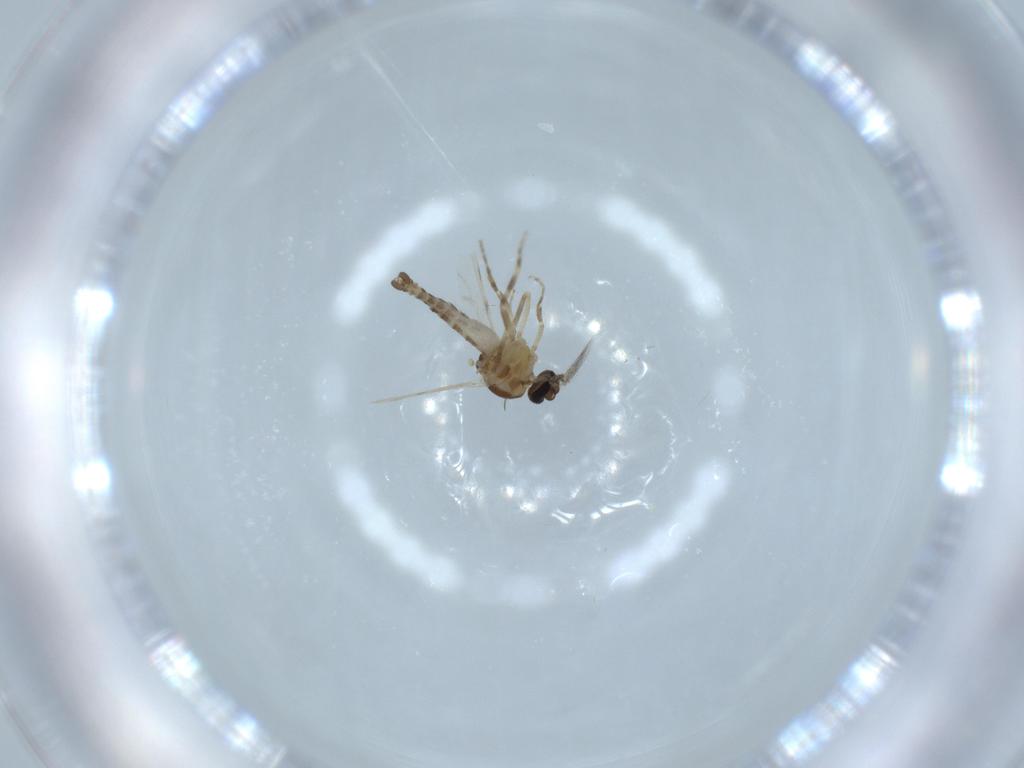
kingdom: Animalia
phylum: Arthropoda
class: Insecta
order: Diptera
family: Ceratopogonidae
